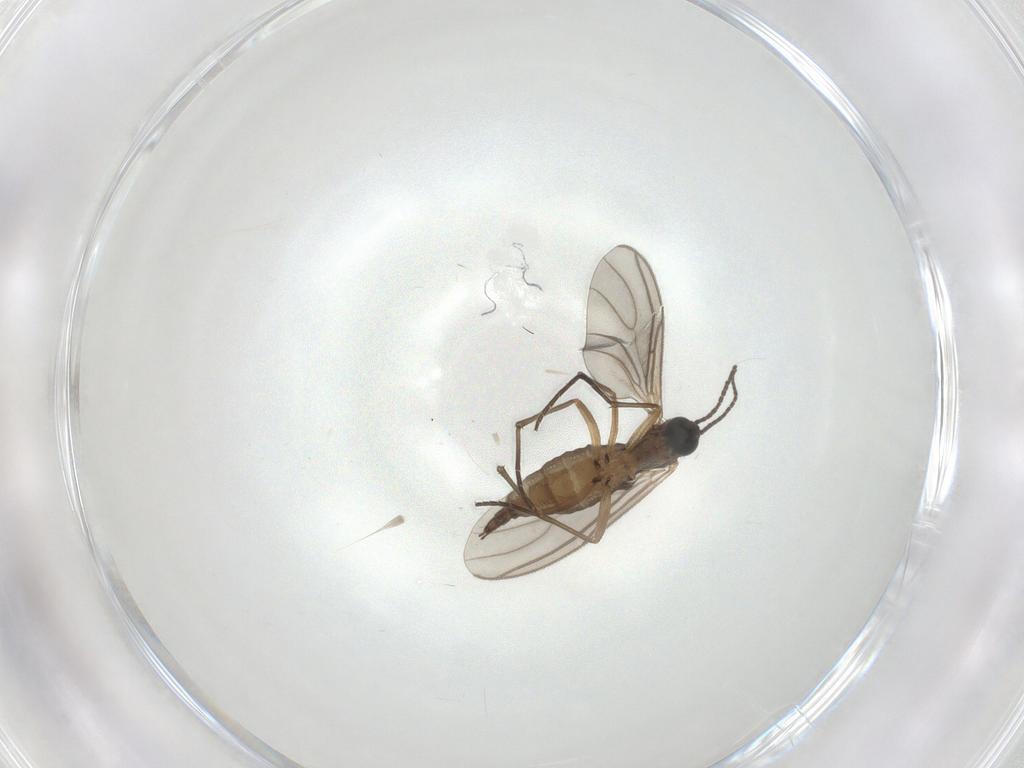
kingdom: Animalia
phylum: Arthropoda
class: Insecta
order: Diptera
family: Sciaridae
